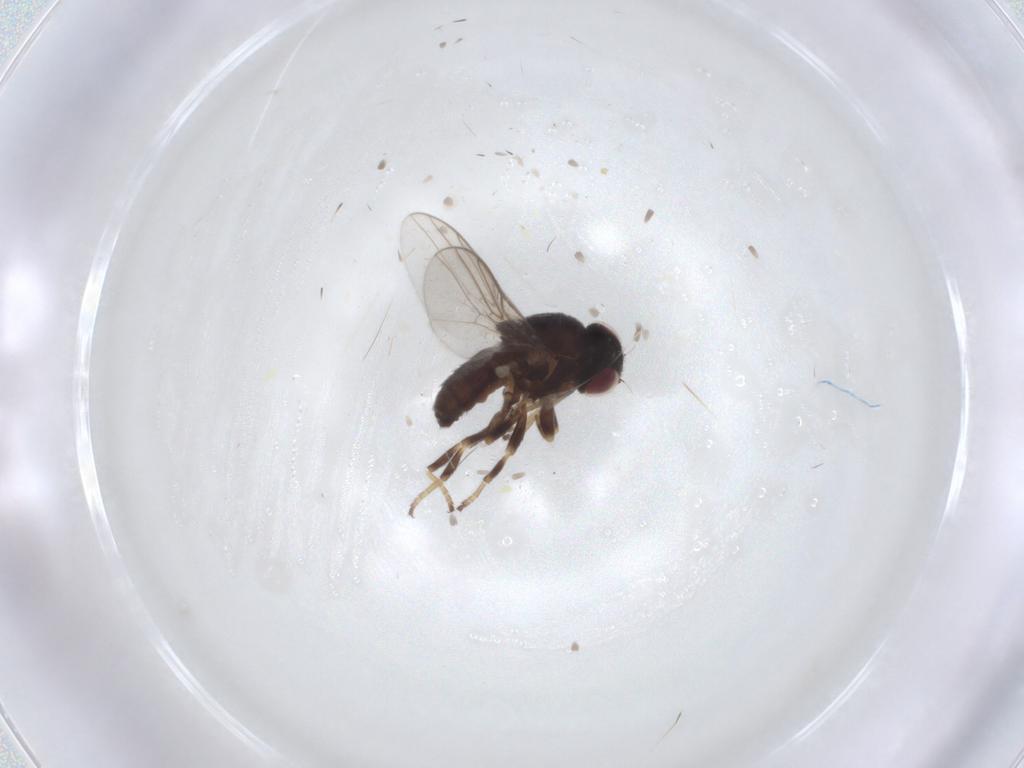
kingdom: Animalia
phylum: Arthropoda
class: Insecta
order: Diptera
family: Chloropidae
